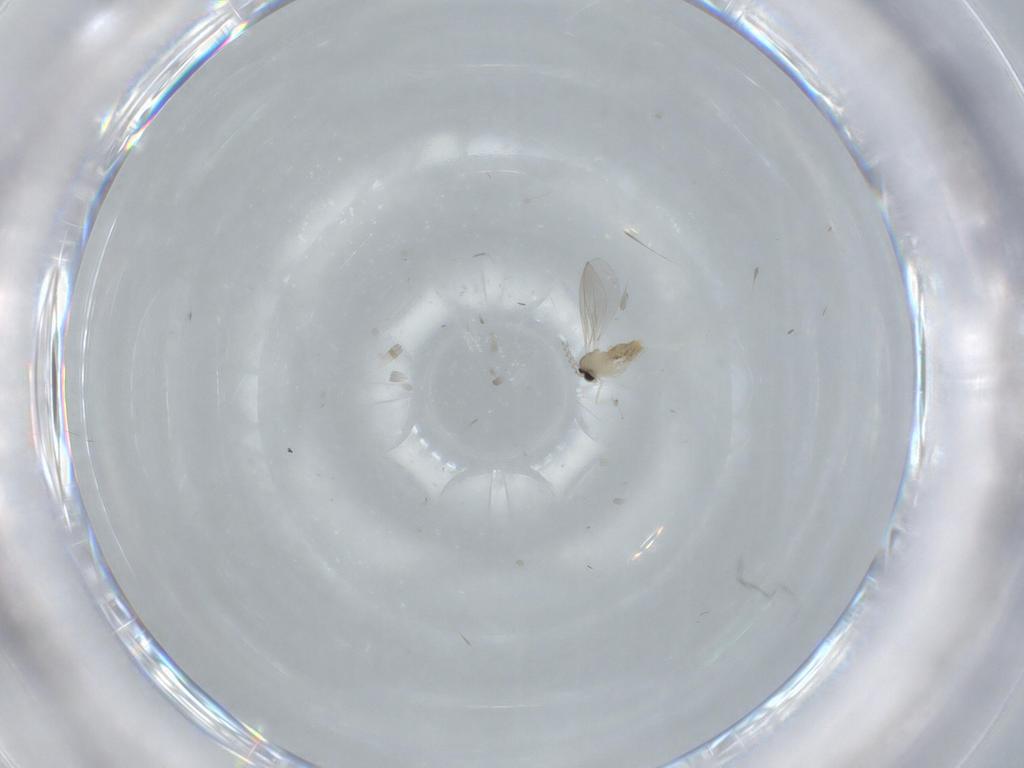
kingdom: Animalia
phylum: Arthropoda
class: Insecta
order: Diptera
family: Cecidomyiidae
